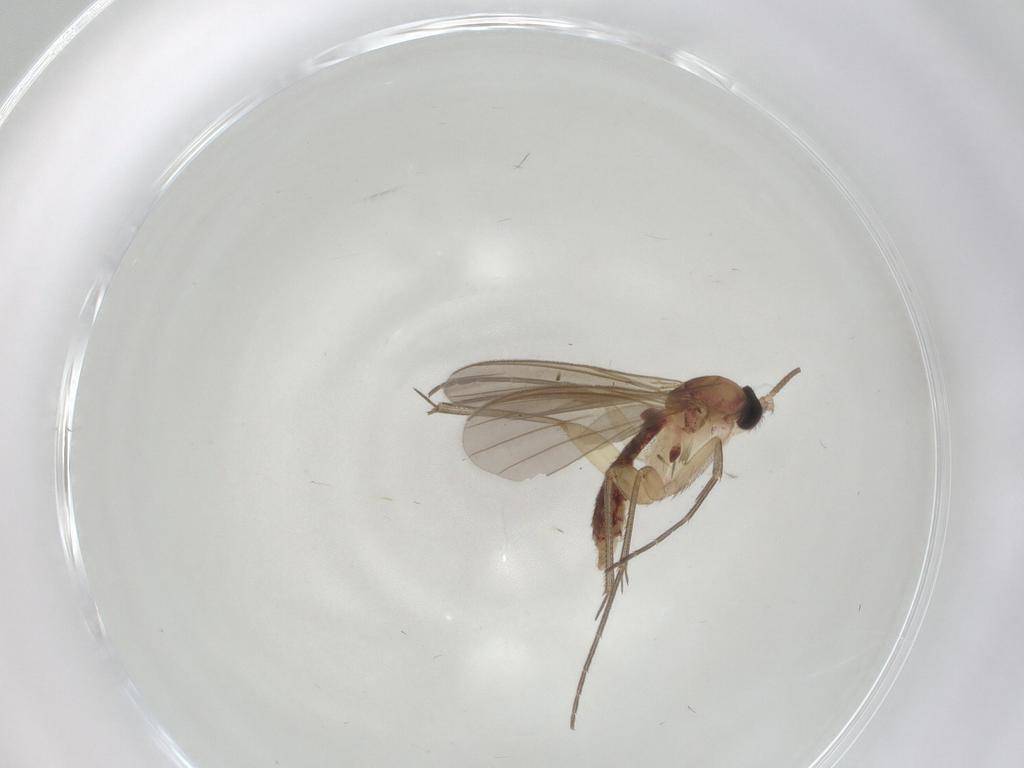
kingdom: Animalia
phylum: Arthropoda
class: Insecta
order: Diptera
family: Mycetophilidae
